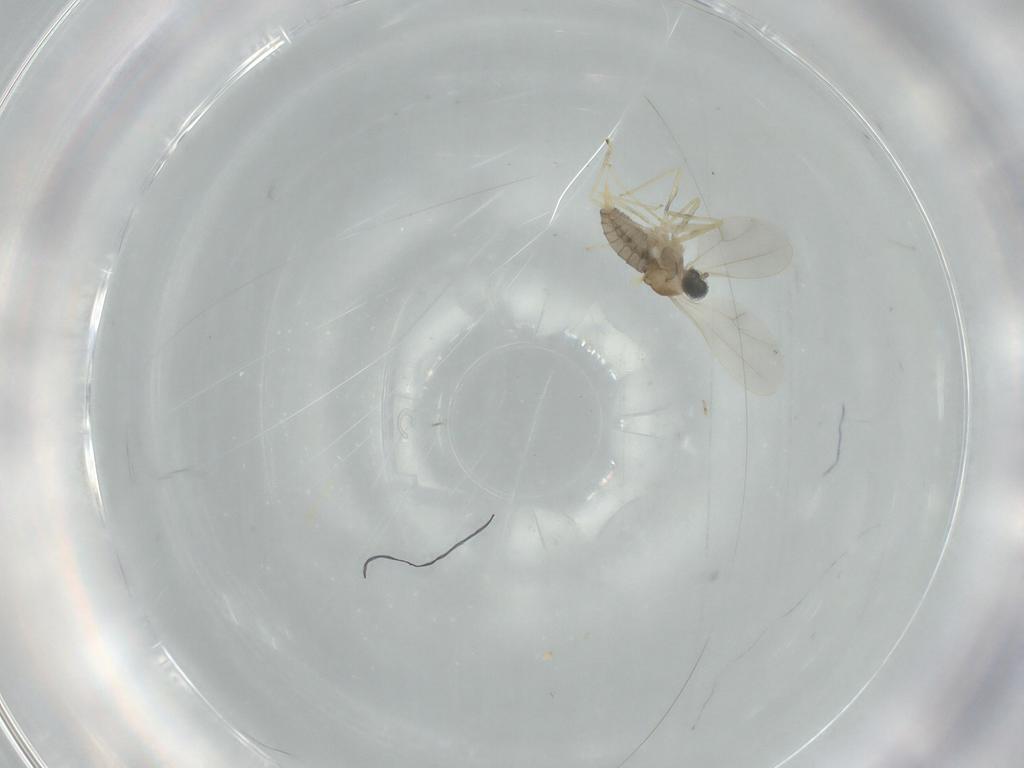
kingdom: Animalia
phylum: Arthropoda
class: Insecta
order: Diptera
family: Cecidomyiidae
